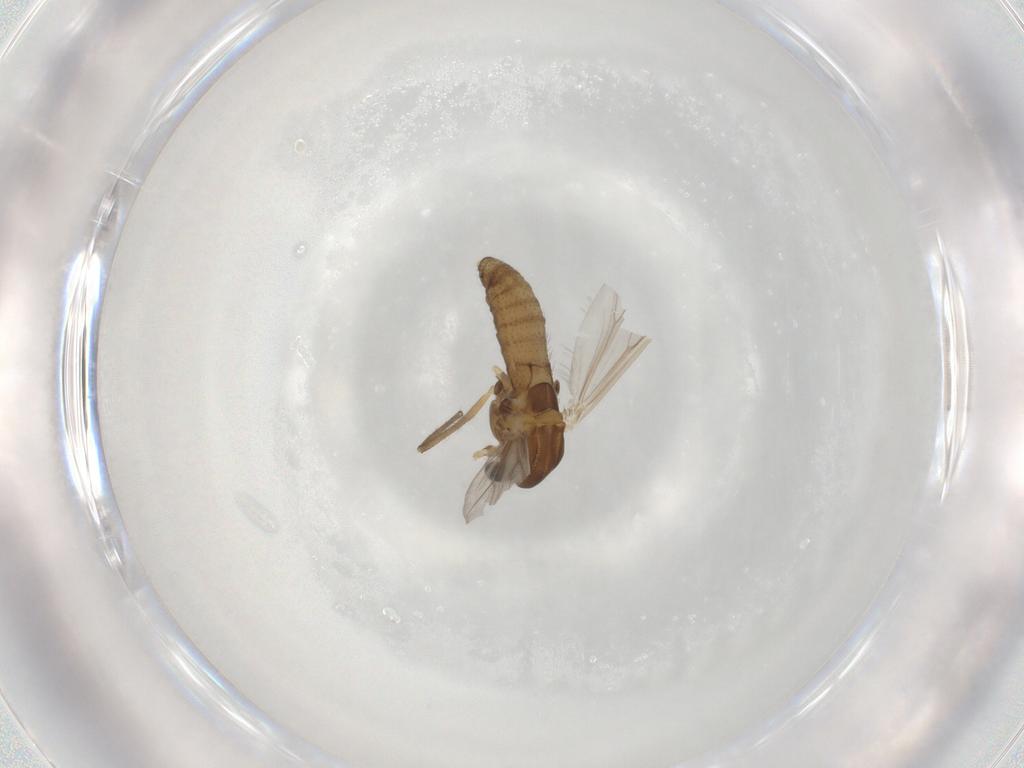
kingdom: Animalia
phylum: Arthropoda
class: Insecta
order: Diptera
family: Chironomidae
